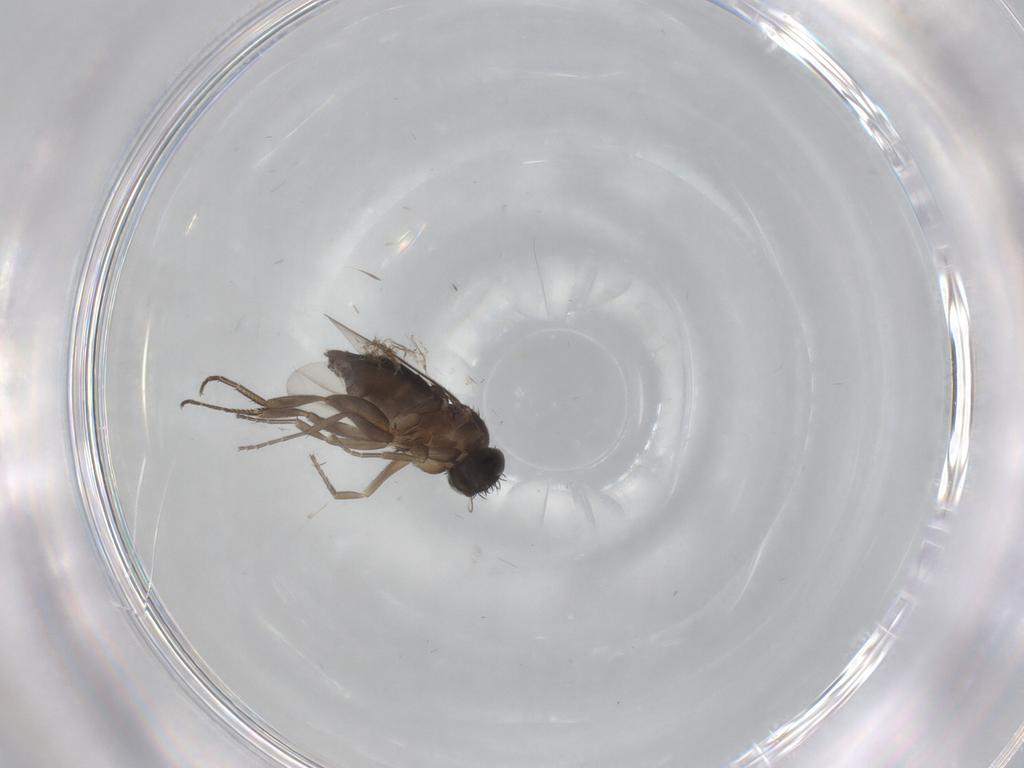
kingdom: Animalia
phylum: Arthropoda
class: Insecta
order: Diptera
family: Phoridae
